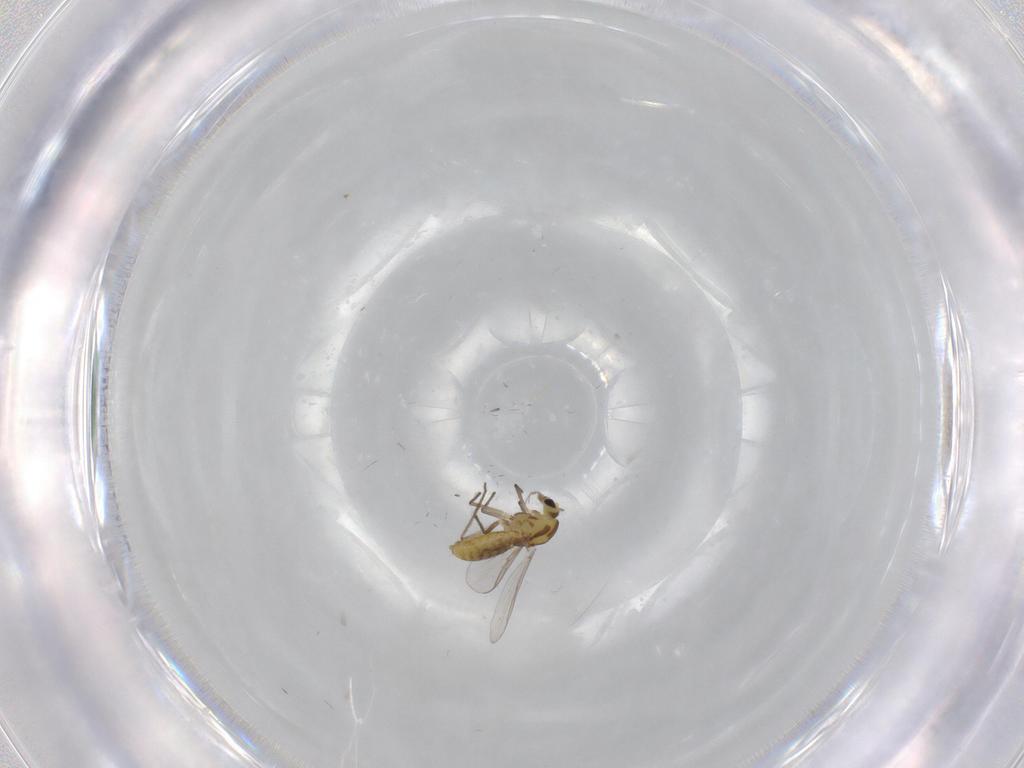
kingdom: Animalia
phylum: Arthropoda
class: Insecta
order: Diptera
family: Chironomidae
